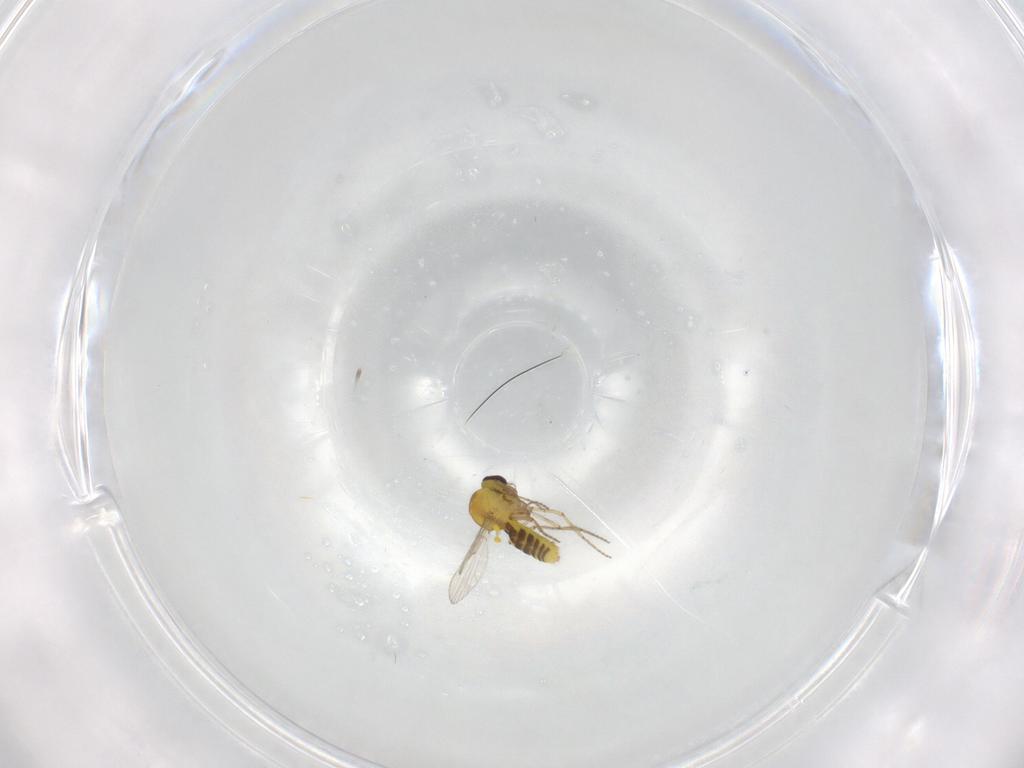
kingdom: Animalia
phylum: Arthropoda
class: Insecta
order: Diptera
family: Ceratopogonidae
